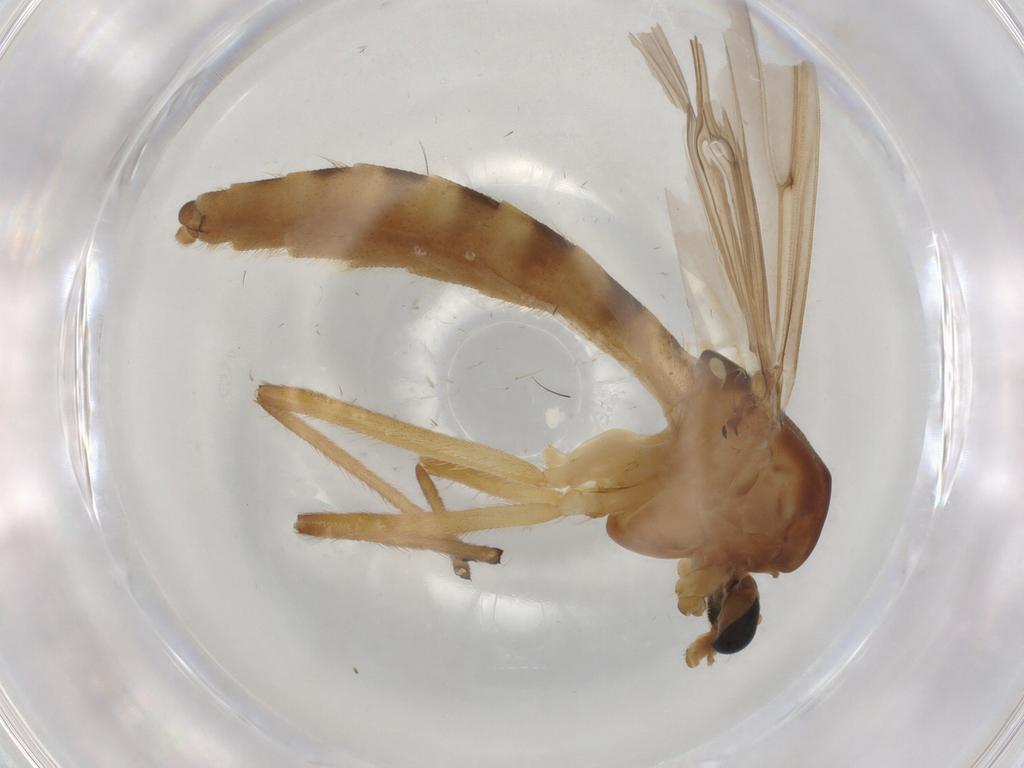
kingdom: Animalia
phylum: Arthropoda
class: Insecta
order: Diptera
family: Dolichopodidae
